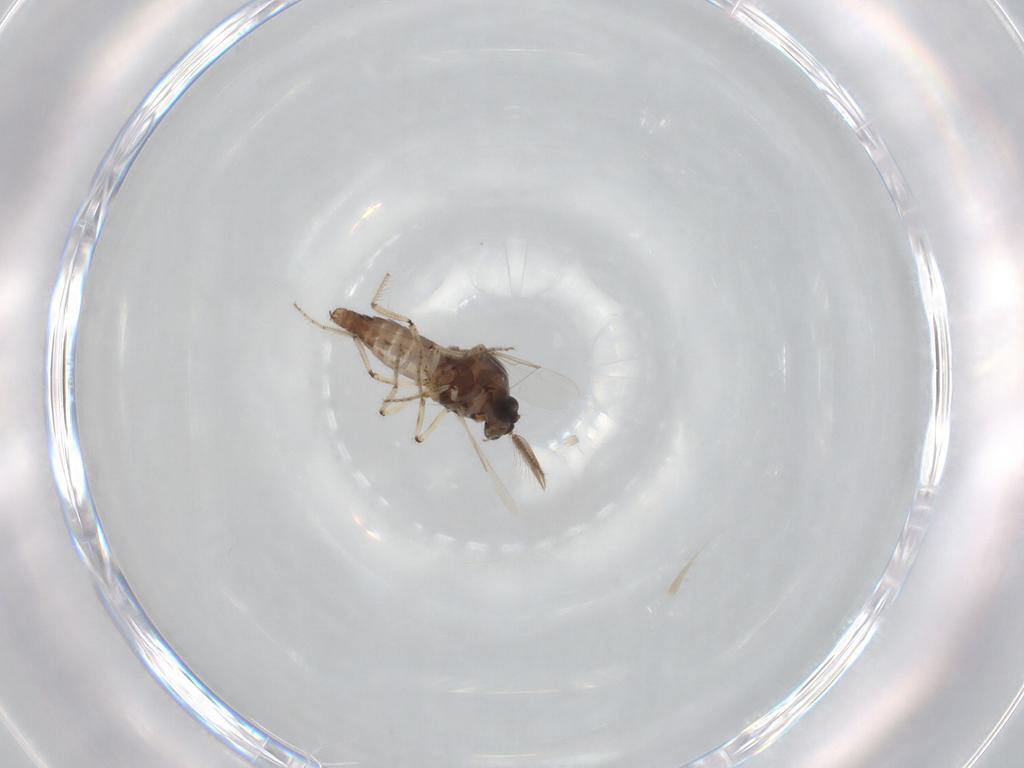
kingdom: Animalia
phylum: Arthropoda
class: Insecta
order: Diptera
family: Ceratopogonidae
